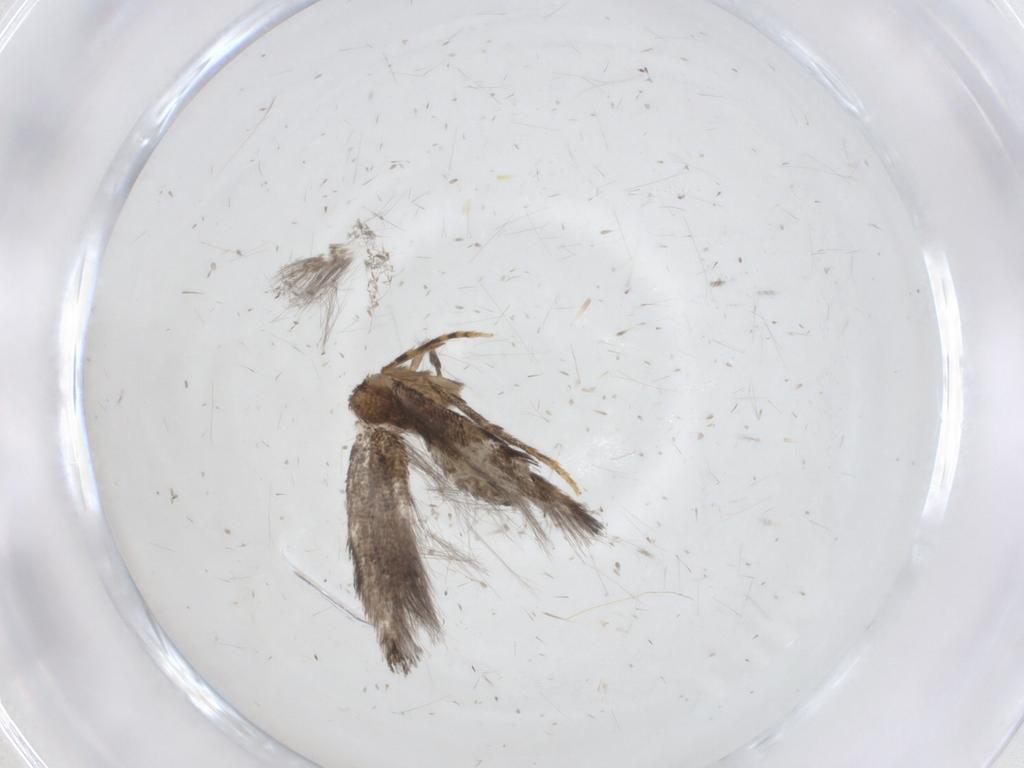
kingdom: Animalia
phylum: Arthropoda
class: Insecta
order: Lepidoptera
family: Tineidae
